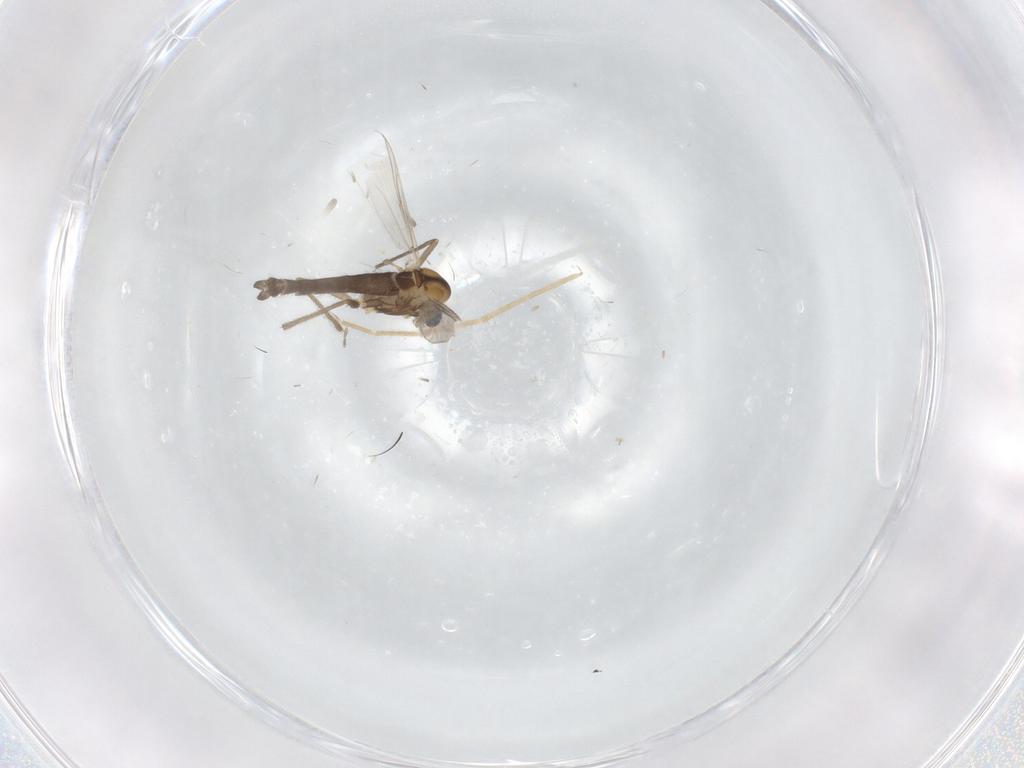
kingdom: Animalia
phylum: Arthropoda
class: Insecta
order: Diptera
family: Chironomidae
